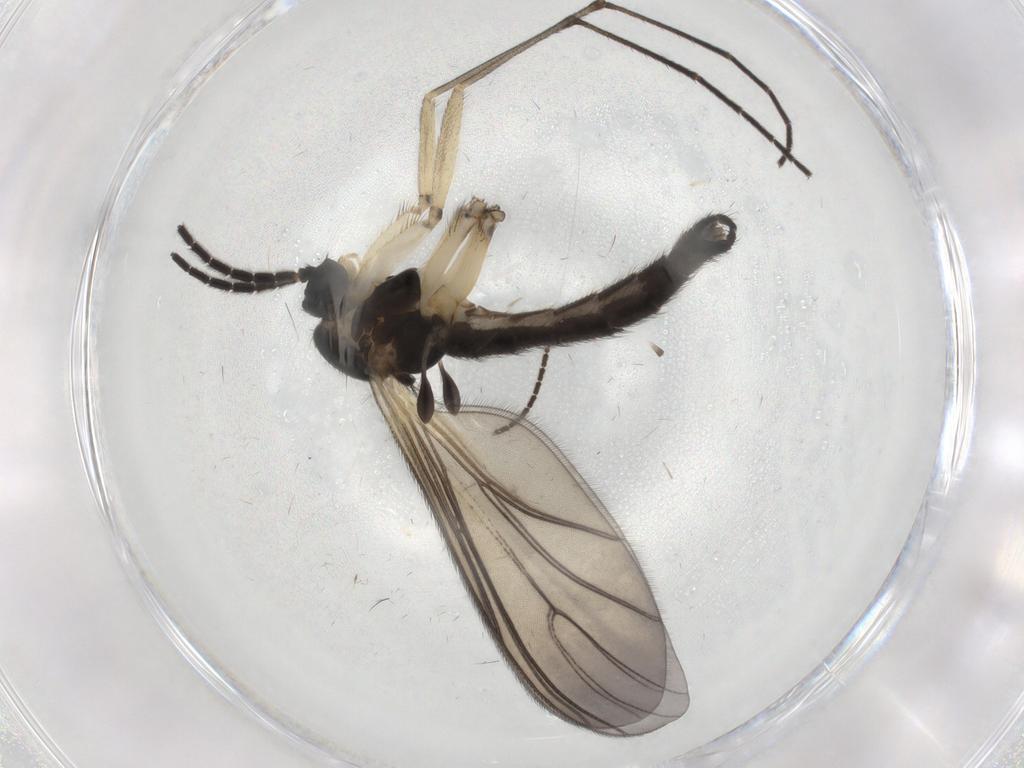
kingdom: Animalia
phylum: Arthropoda
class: Insecta
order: Diptera
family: Sciaridae
